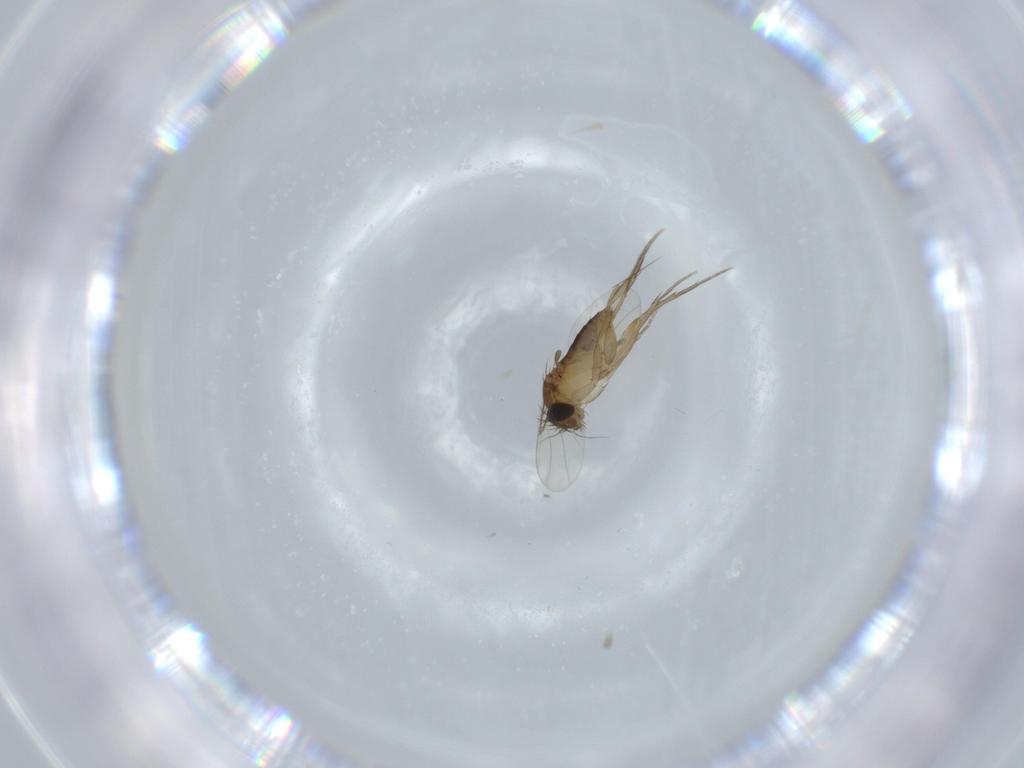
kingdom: Animalia
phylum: Arthropoda
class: Insecta
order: Diptera
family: Phoridae
